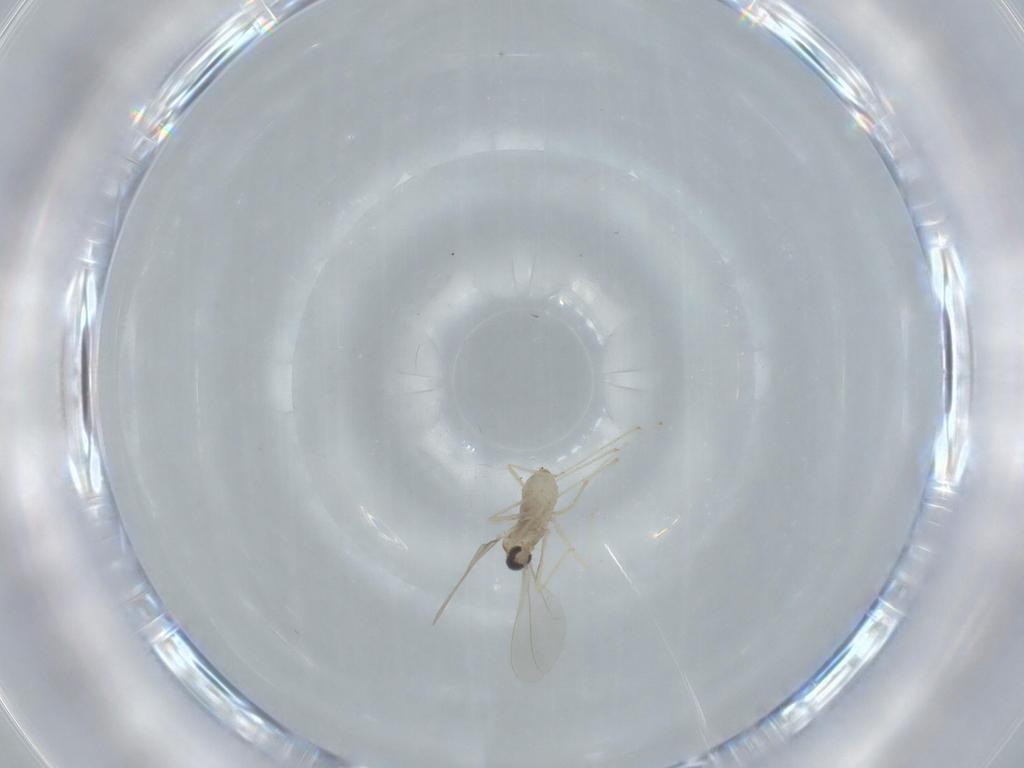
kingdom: Animalia
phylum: Arthropoda
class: Insecta
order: Diptera
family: Cecidomyiidae
